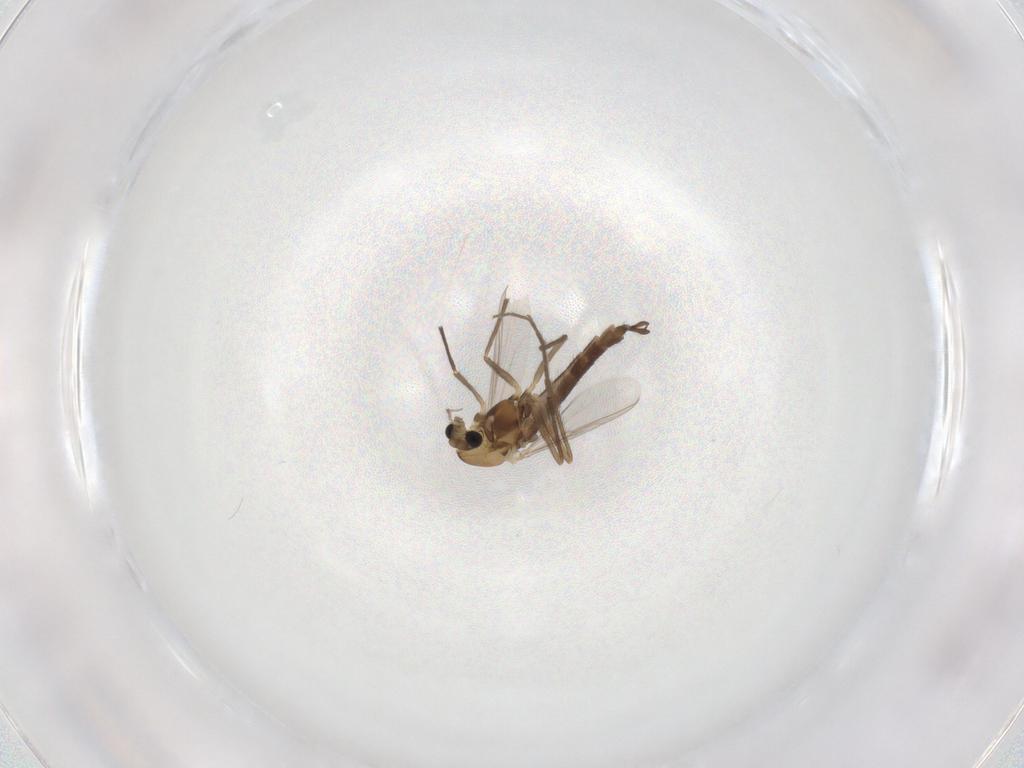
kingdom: Animalia
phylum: Arthropoda
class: Insecta
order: Diptera
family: Chironomidae
